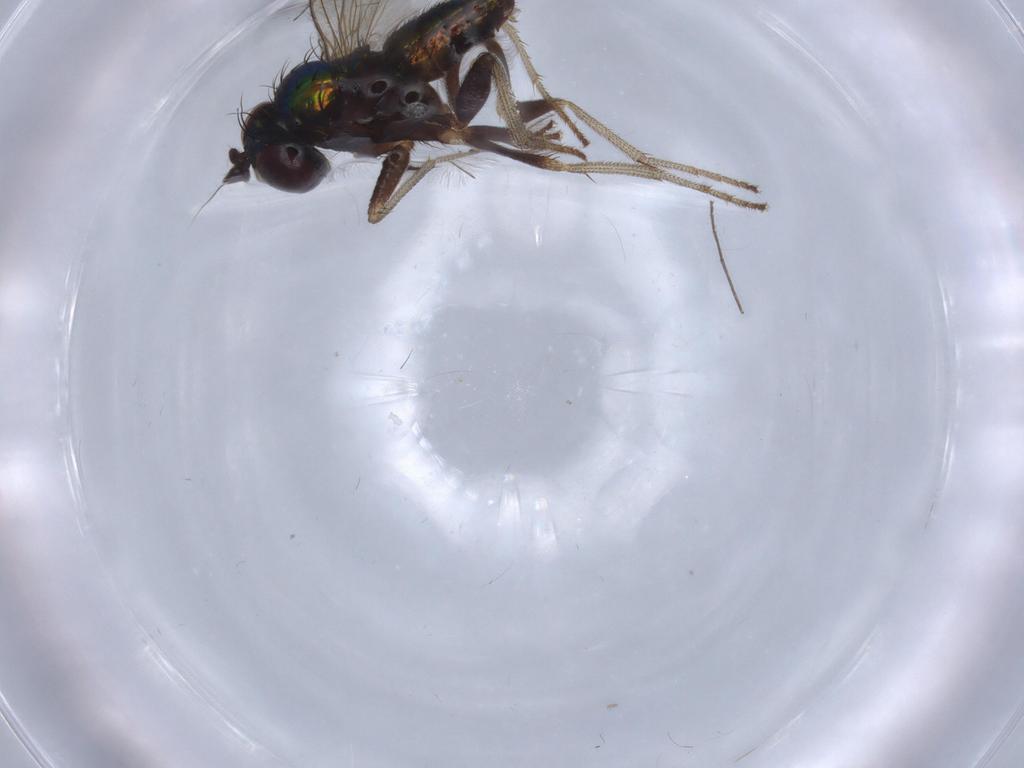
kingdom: Animalia
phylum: Arthropoda
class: Insecta
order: Diptera
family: Dolichopodidae
